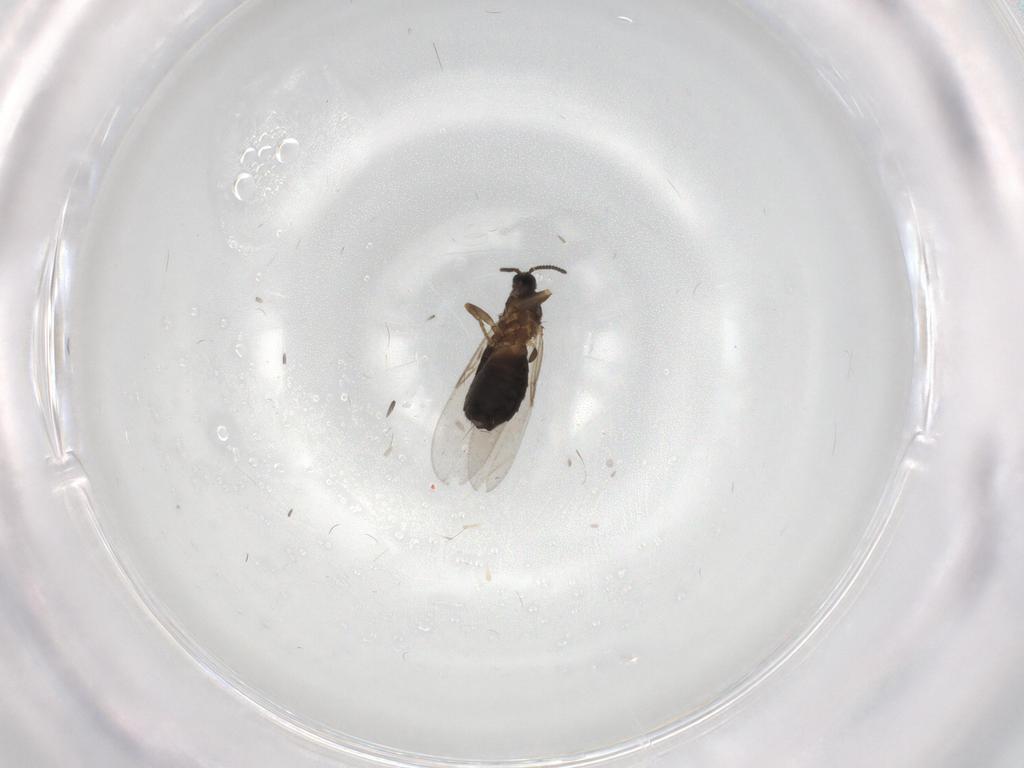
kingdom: Animalia
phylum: Arthropoda
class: Insecta
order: Diptera
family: Scatopsidae
